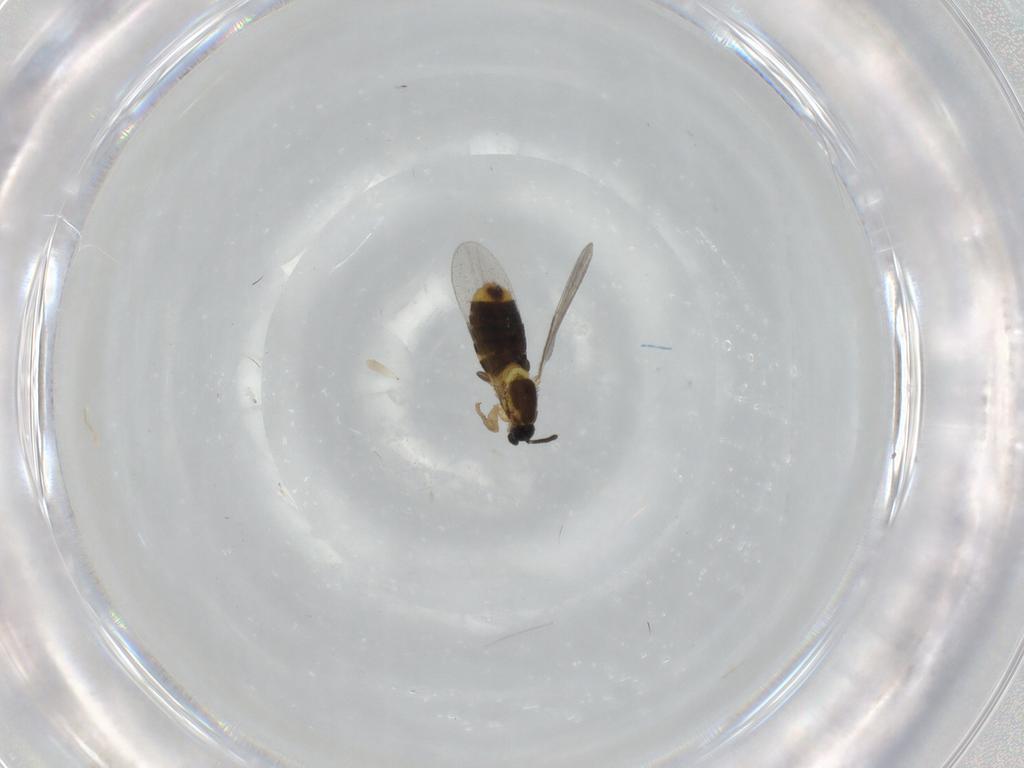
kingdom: Animalia
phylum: Arthropoda
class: Insecta
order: Diptera
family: Scatopsidae
